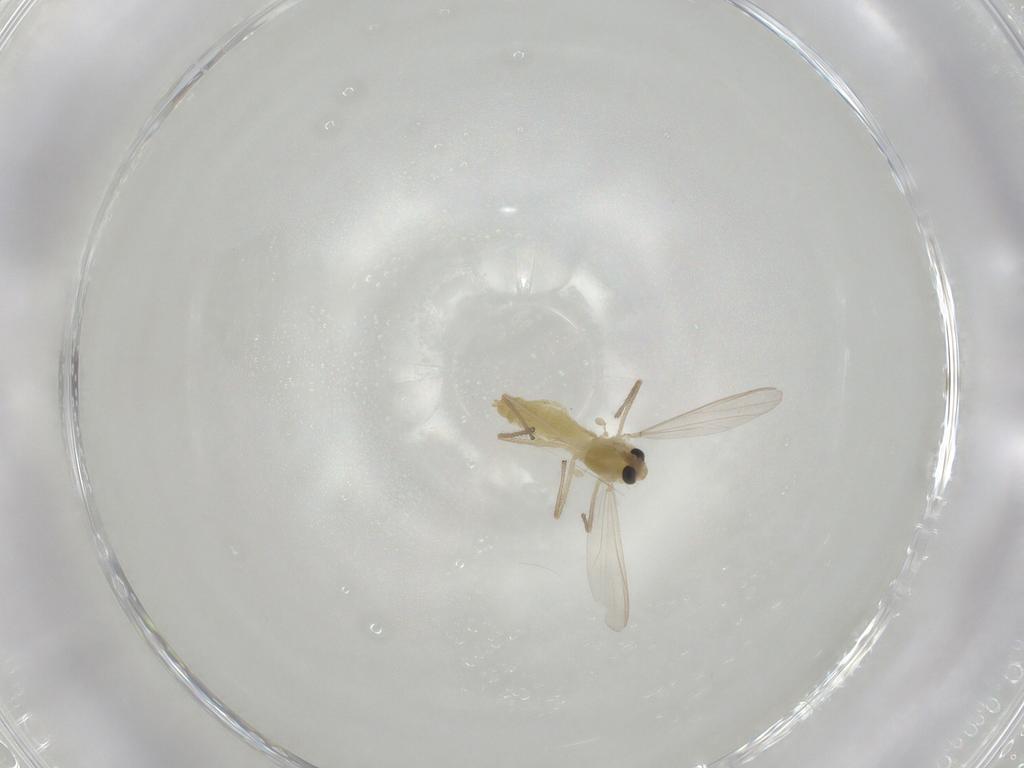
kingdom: Animalia
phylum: Arthropoda
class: Insecta
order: Diptera
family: Chironomidae
